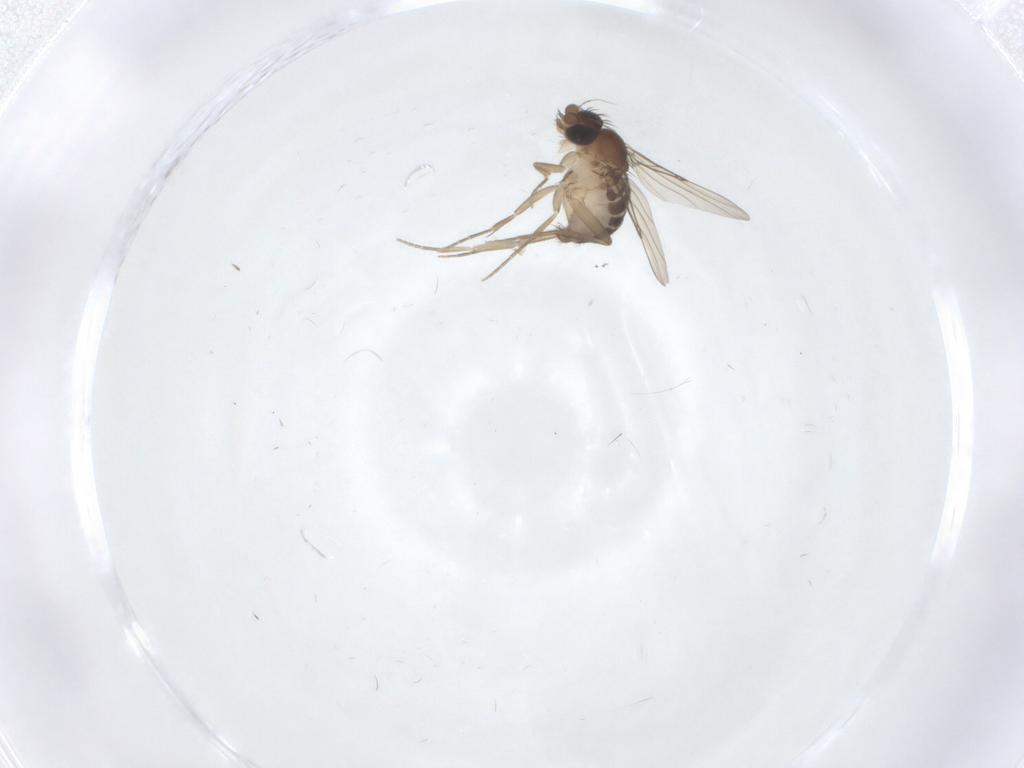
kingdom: Animalia
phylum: Arthropoda
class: Insecta
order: Diptera
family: Phoridae
